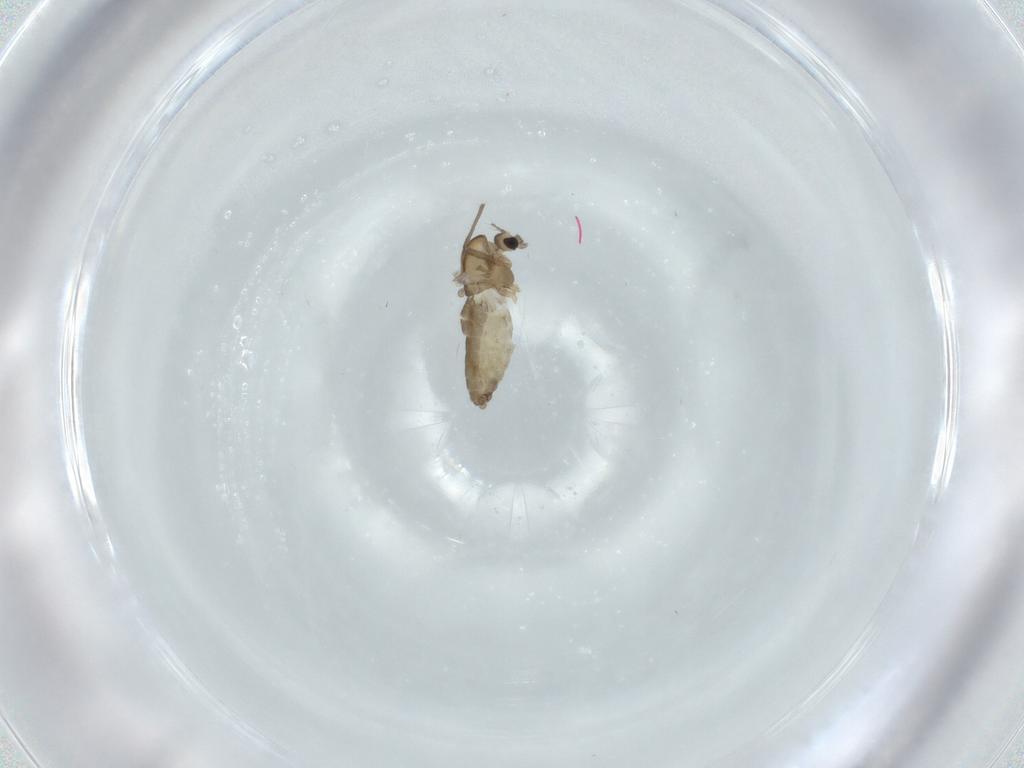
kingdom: Animalia
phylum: Arthropoda
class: Insecta
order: Diptera
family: Chironomidae
